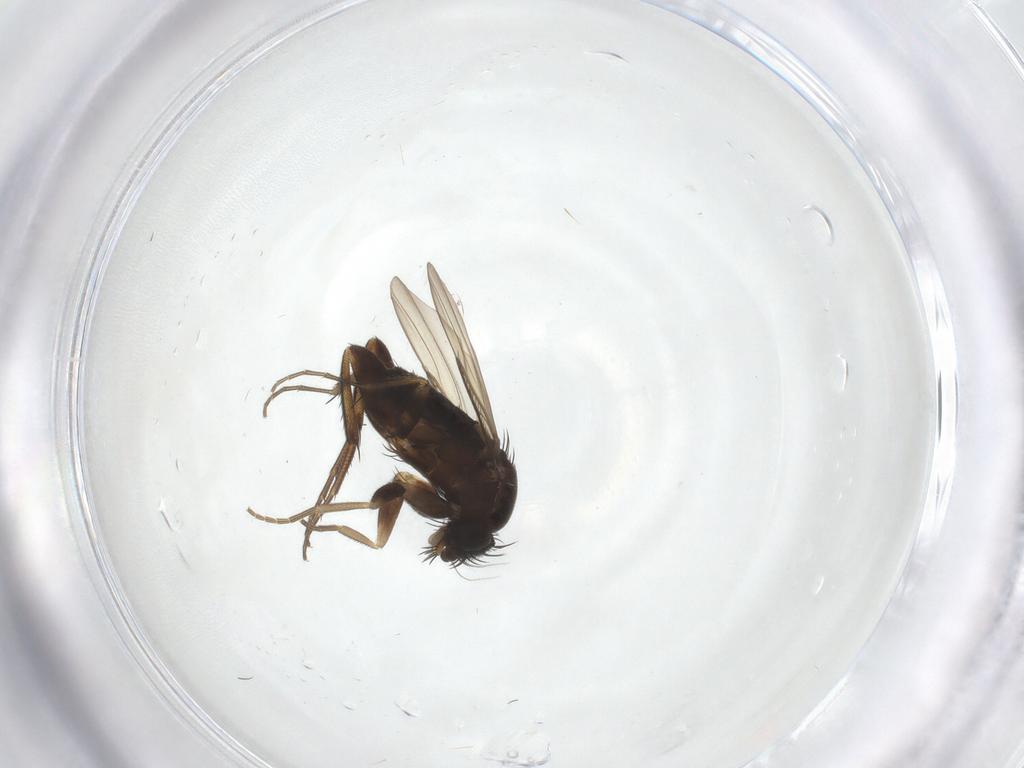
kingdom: Animalia
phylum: Arthropoda
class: Insecta
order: Diptera
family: Phoridae
